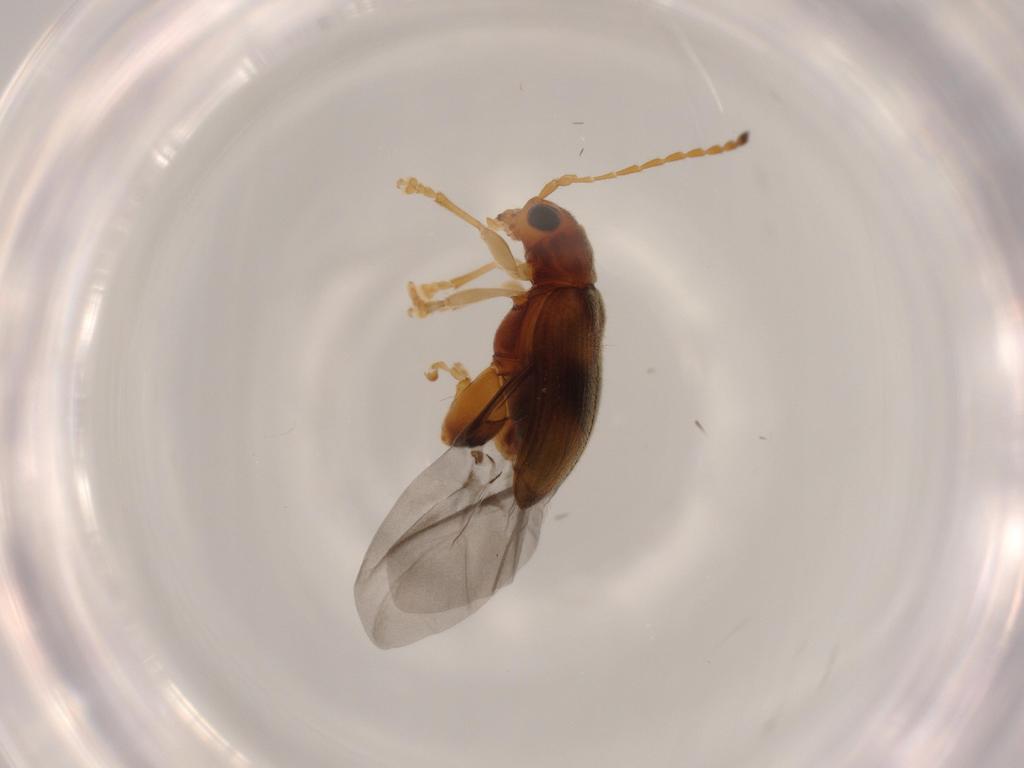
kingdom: Animalia
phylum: Arthropoda
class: Insecta
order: Coleoptera
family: Chrysomelidae
